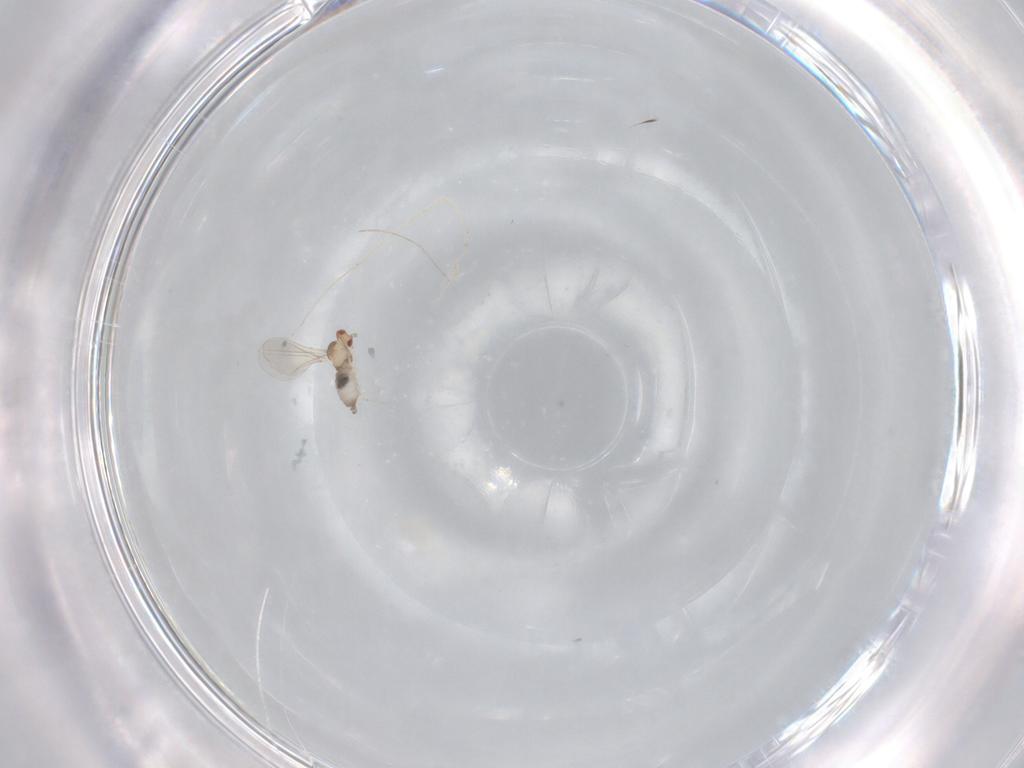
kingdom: Animalia
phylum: Arthropoda
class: Insecta
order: Diptera
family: Chironomidae
